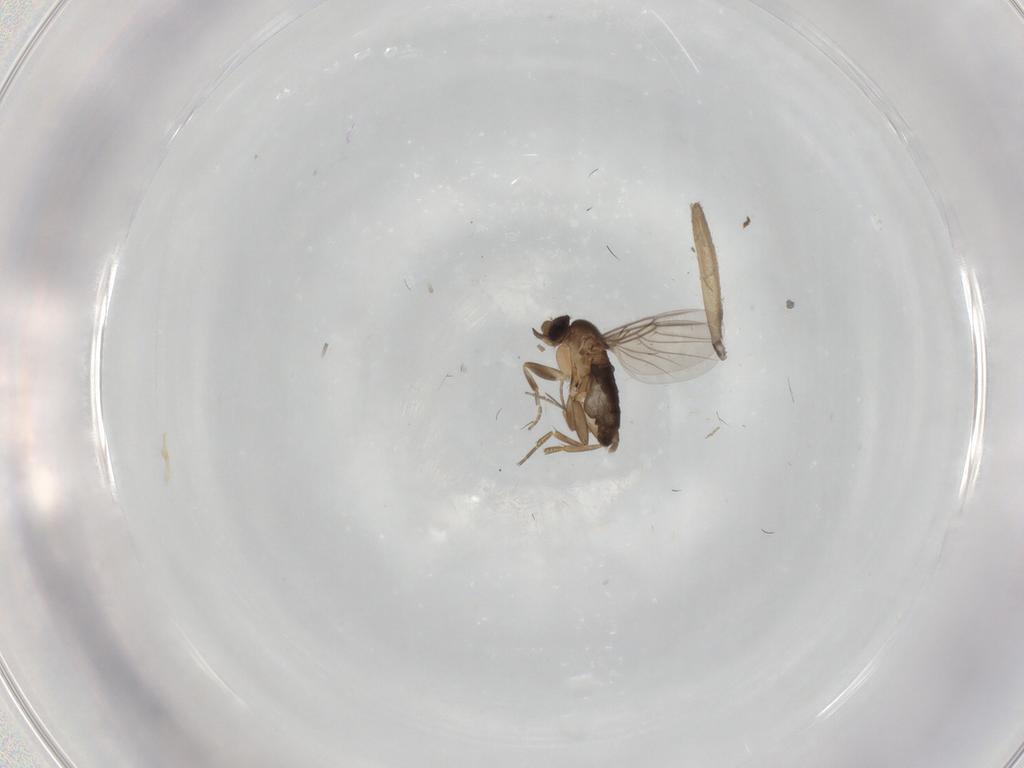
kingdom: Animalia
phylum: Arthropoda
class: Insecta
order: Diptera
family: Phoridae
